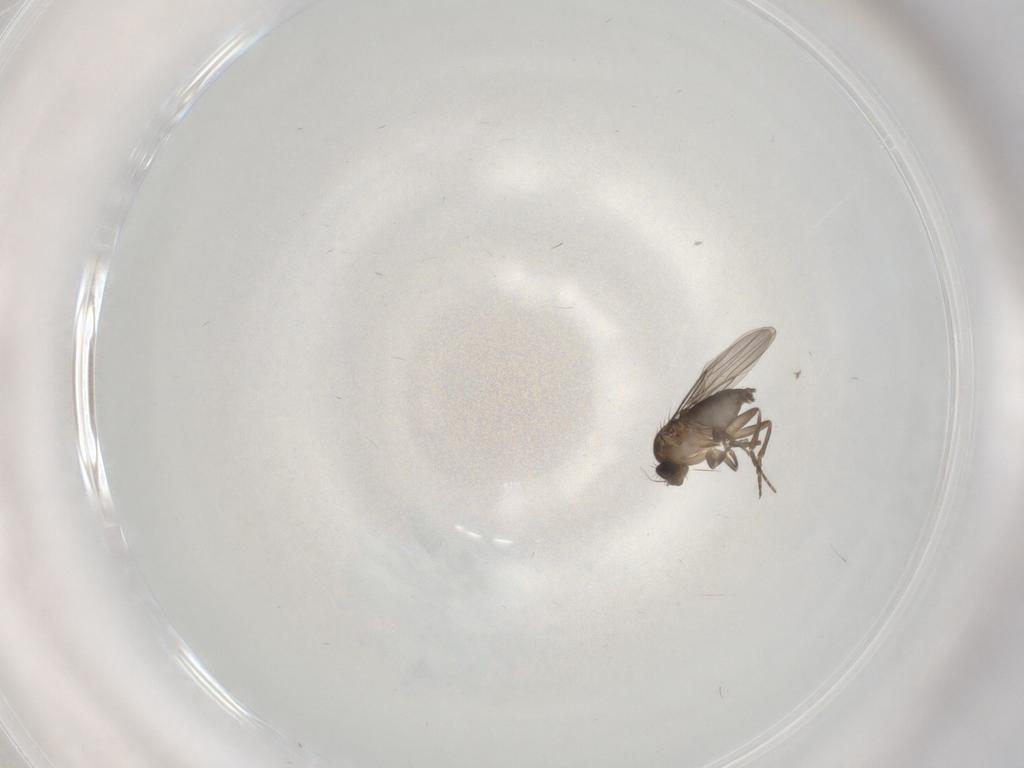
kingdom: Animalia
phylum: Arthropoda
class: Insecta
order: Diptera
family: Phoridae
